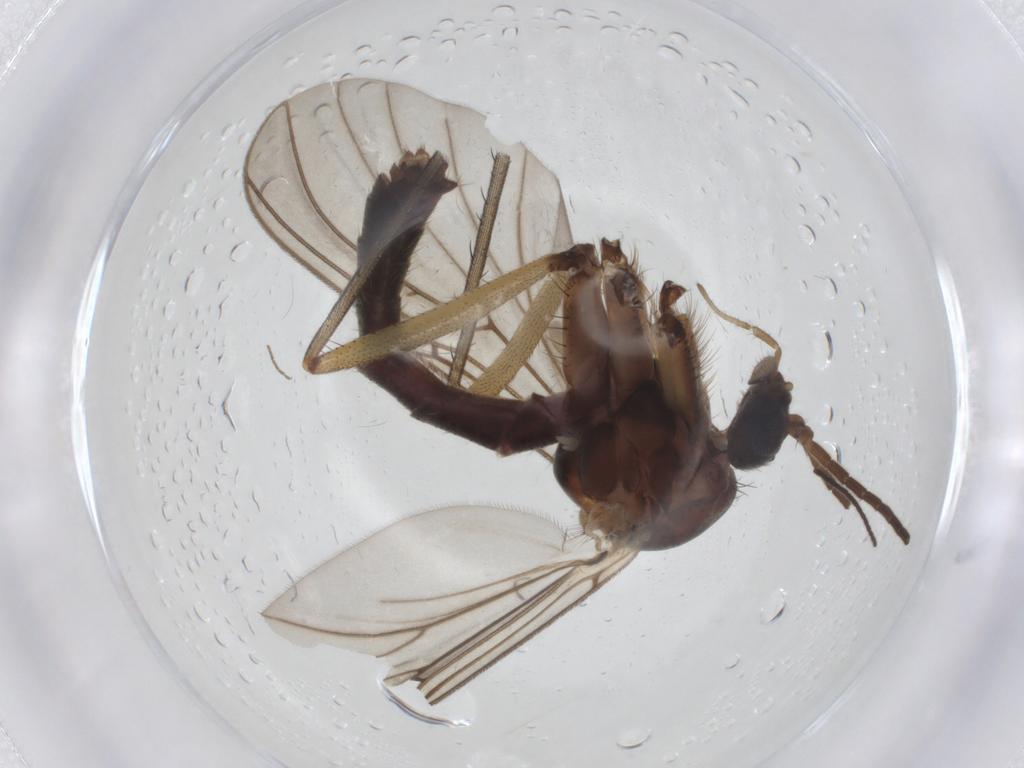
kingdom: Animalia
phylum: Arthropoda
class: Insecta
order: Diptera
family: Mycetophilidae
